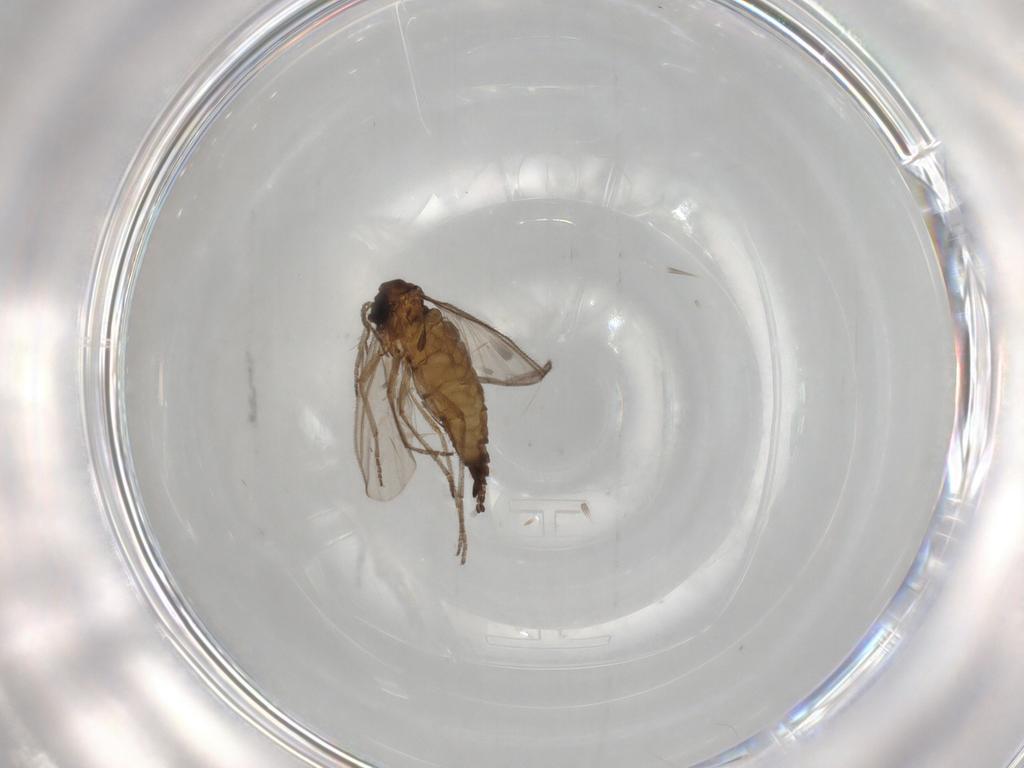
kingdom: Animalia
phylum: Arthropoda
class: Insecta
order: Diptera
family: Sciaridae
